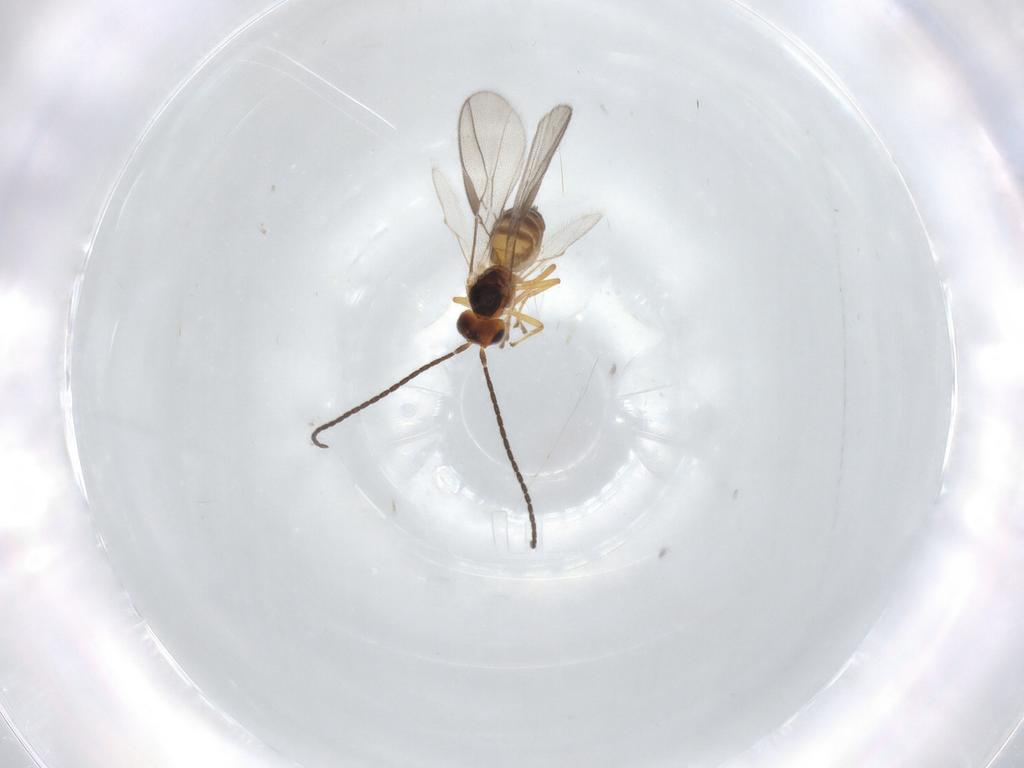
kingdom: Animalia
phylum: Arthropoda
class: Insecta
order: Hymenoptera
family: Braconidae
